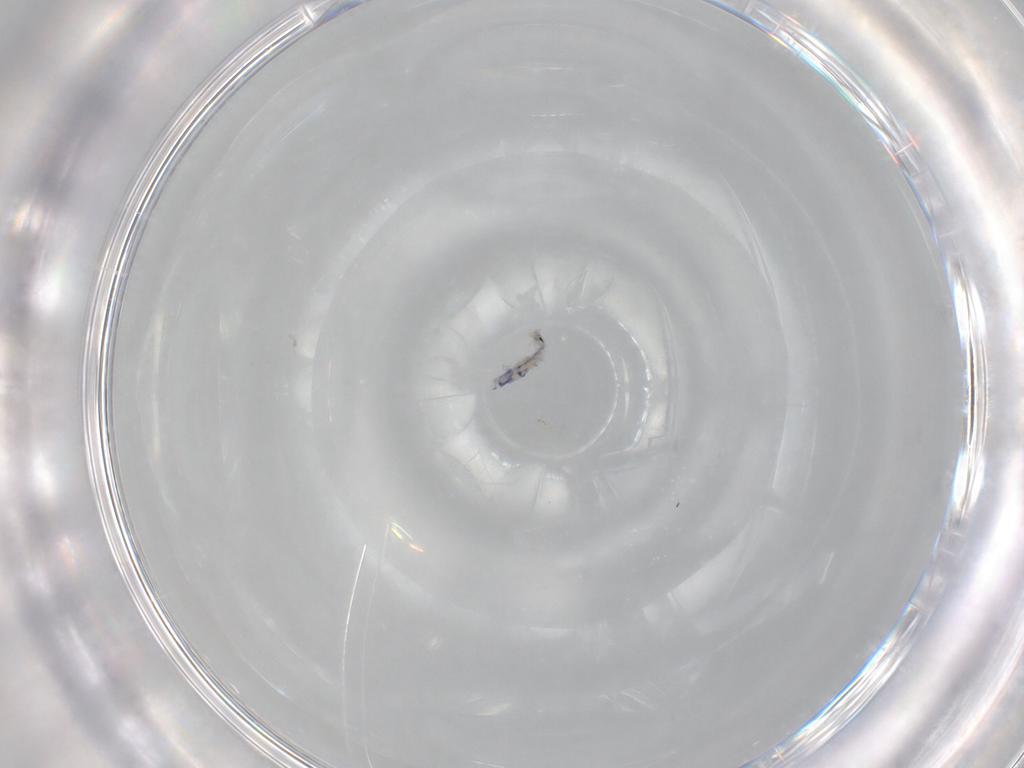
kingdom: Animalia
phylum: Arthropoda
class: Collembola
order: Entomobryomorpha
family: Entomobryidae
